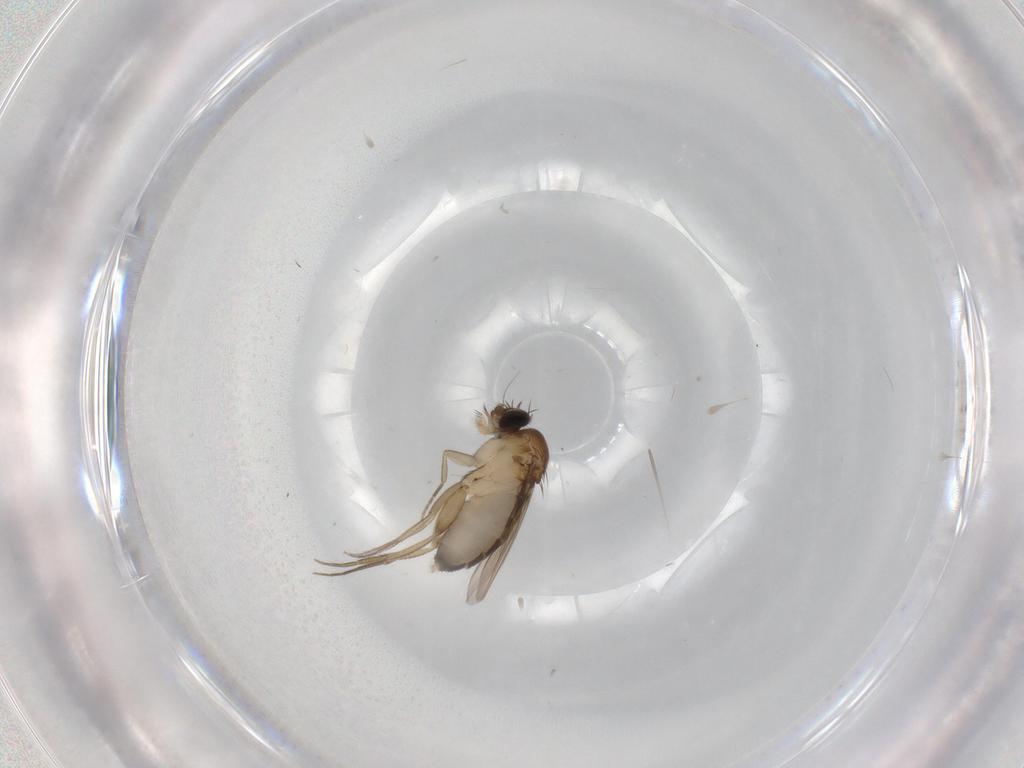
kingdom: Animalia
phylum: Arthropoda
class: Insecta
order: Diptera
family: Phoridae
